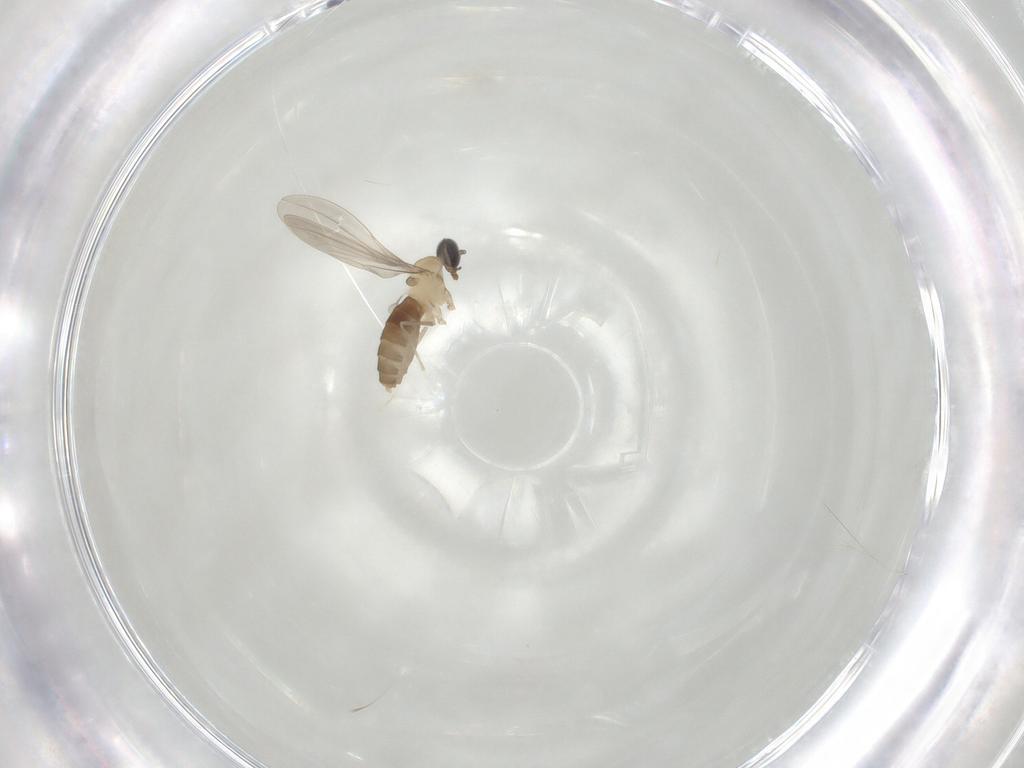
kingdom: Animalia
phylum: Arthropoda
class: Insecta
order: Diptera
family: Cecidomyiidae
